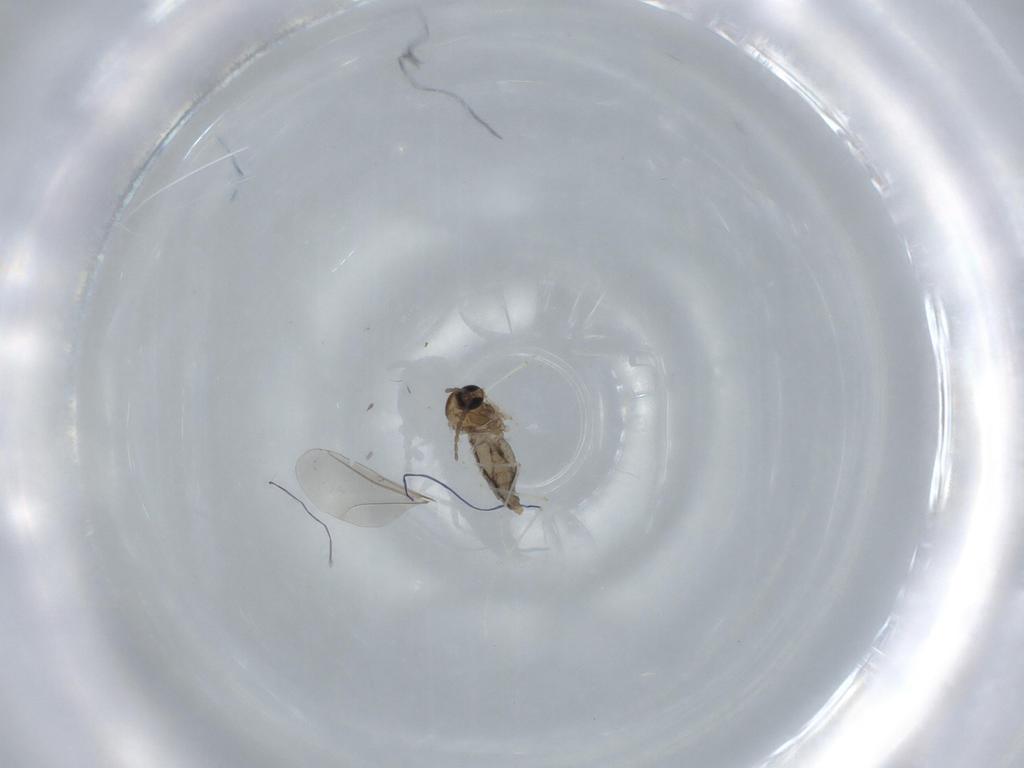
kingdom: Animalia
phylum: Arthropoda
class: Insecta
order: Diptera
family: Cecidomyiidae
